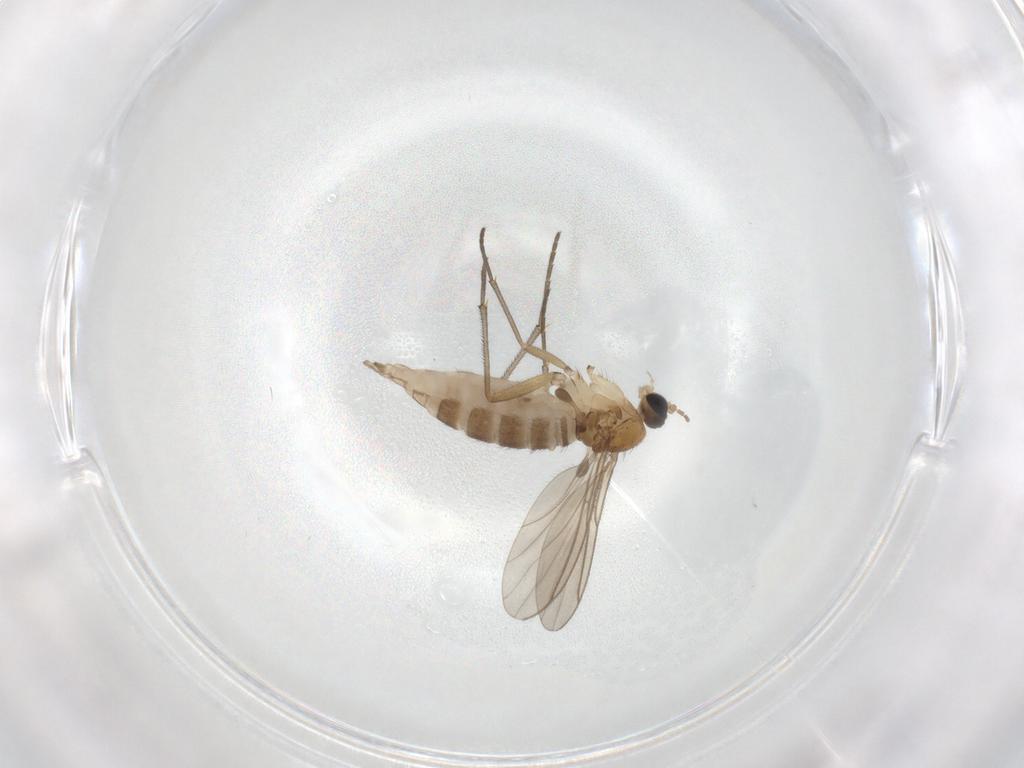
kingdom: Animalia
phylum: Arthropoda
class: Insecta
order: Diptera
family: Sciaridae
